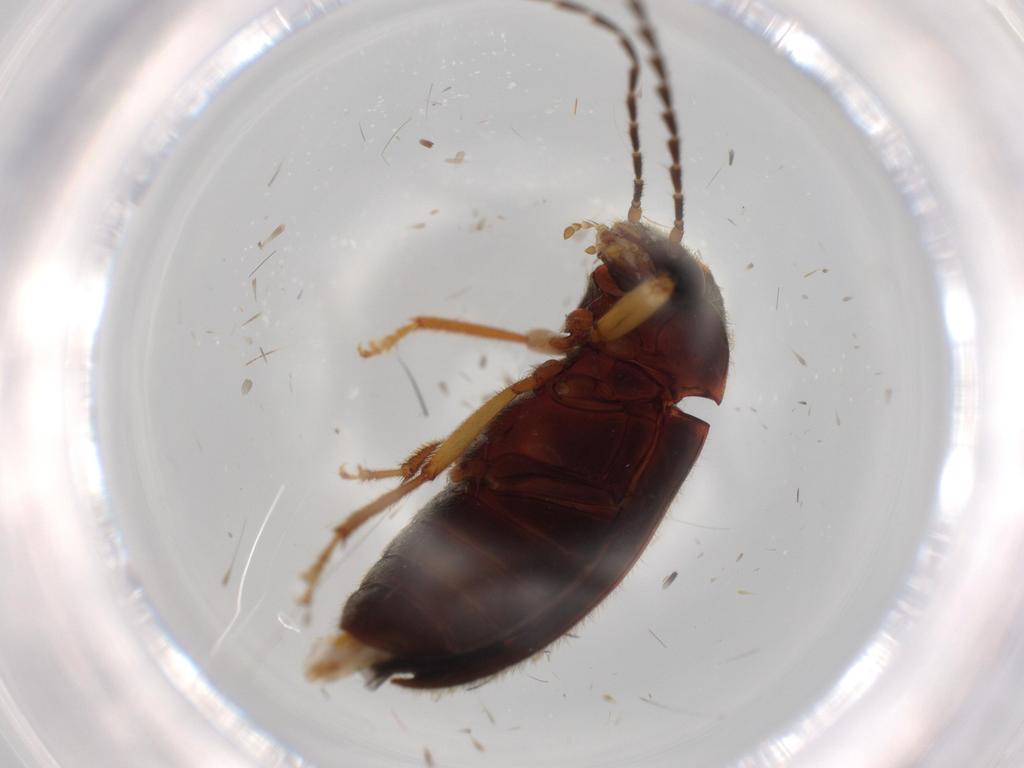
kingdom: Animalia
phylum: Arthropoda
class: Insecta
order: Coleoptera
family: Ptilodactylidae
